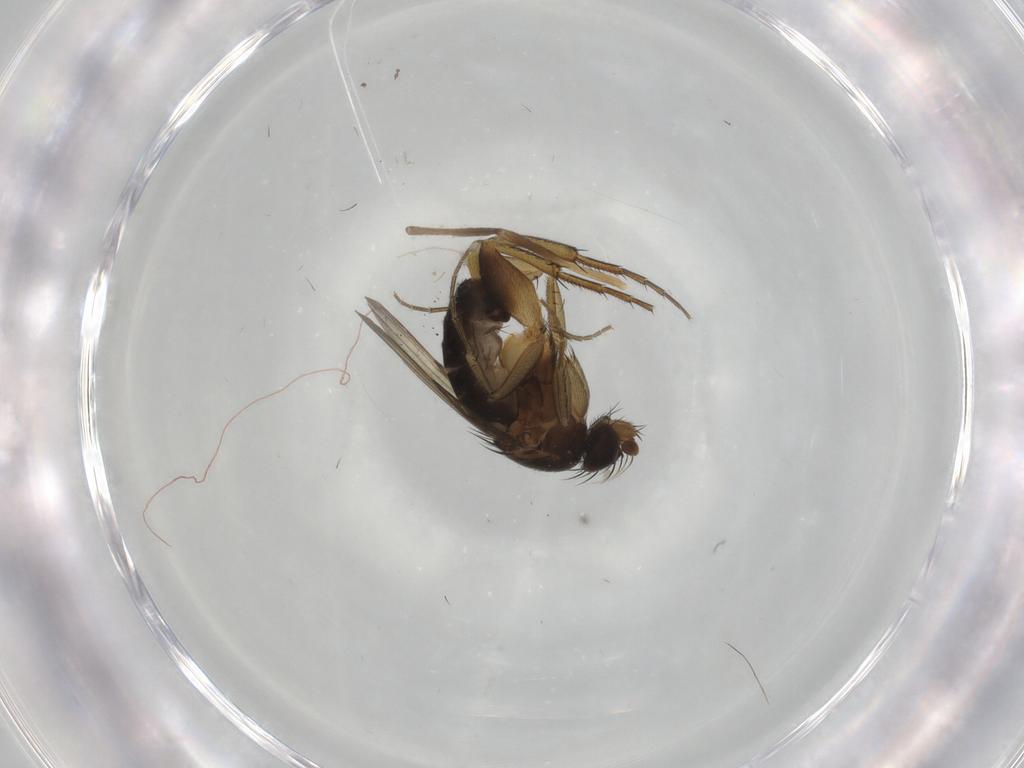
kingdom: Animalia
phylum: Arthropoda
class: Insecta
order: Diptera
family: Phoridae
